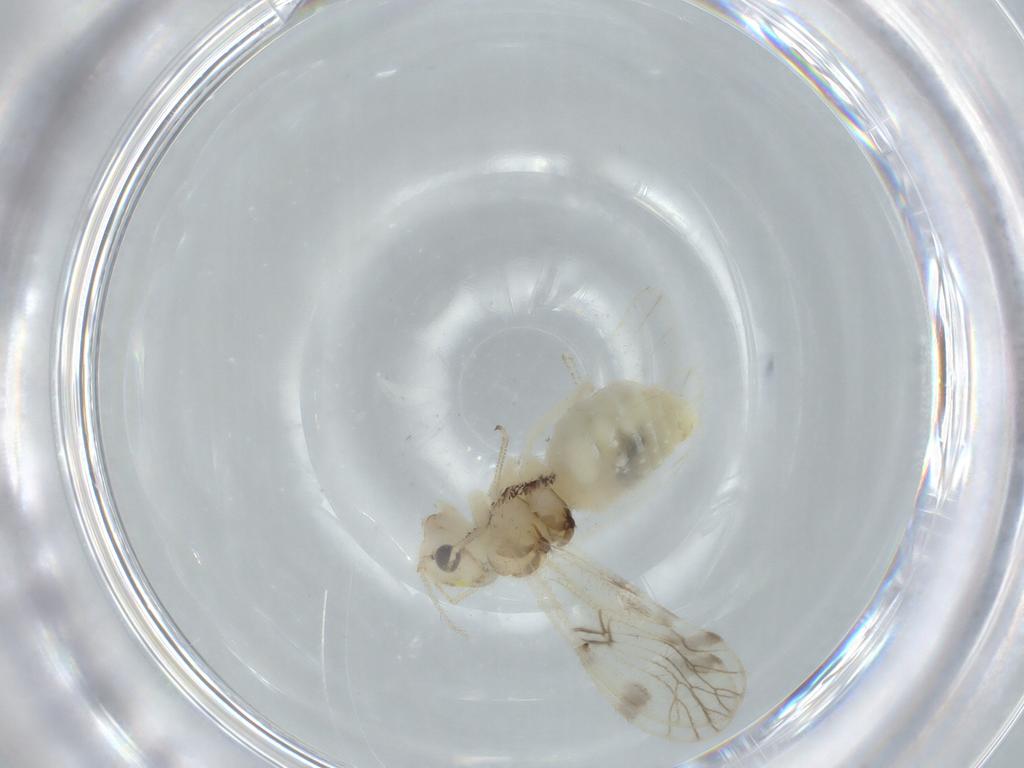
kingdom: Animalia
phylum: Arthropoda
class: Insecta
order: Psocodea
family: Caeciliusidae
